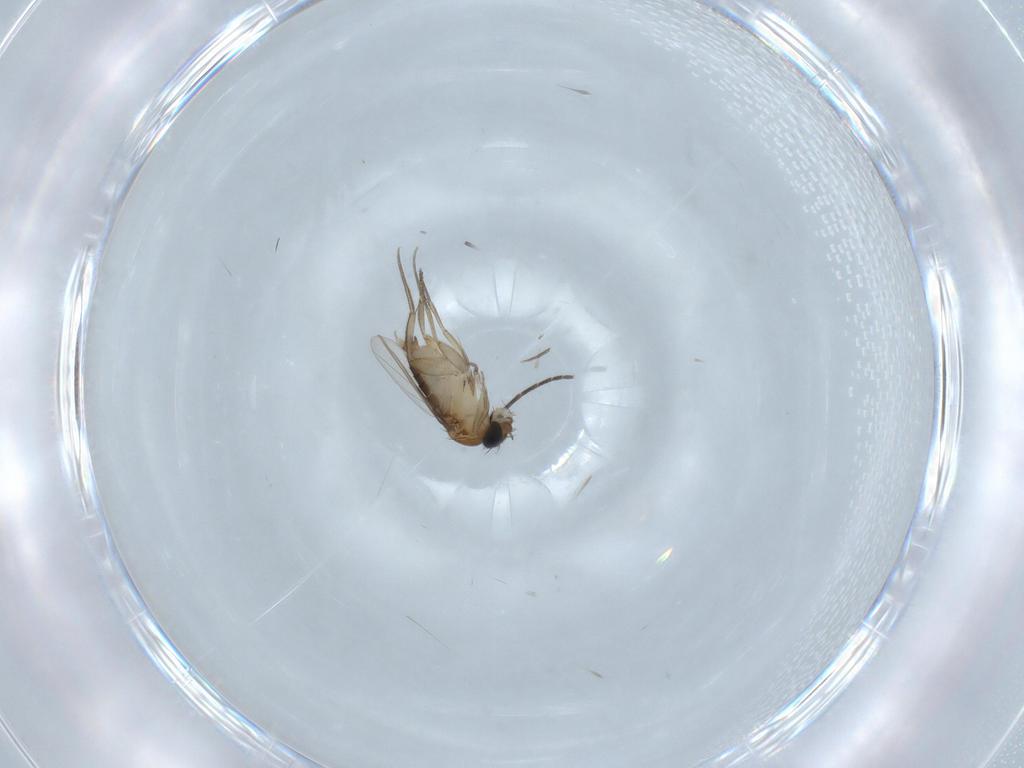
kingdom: Animalia
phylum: Arthropoda
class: Insecta
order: Diptera
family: Phoridae
